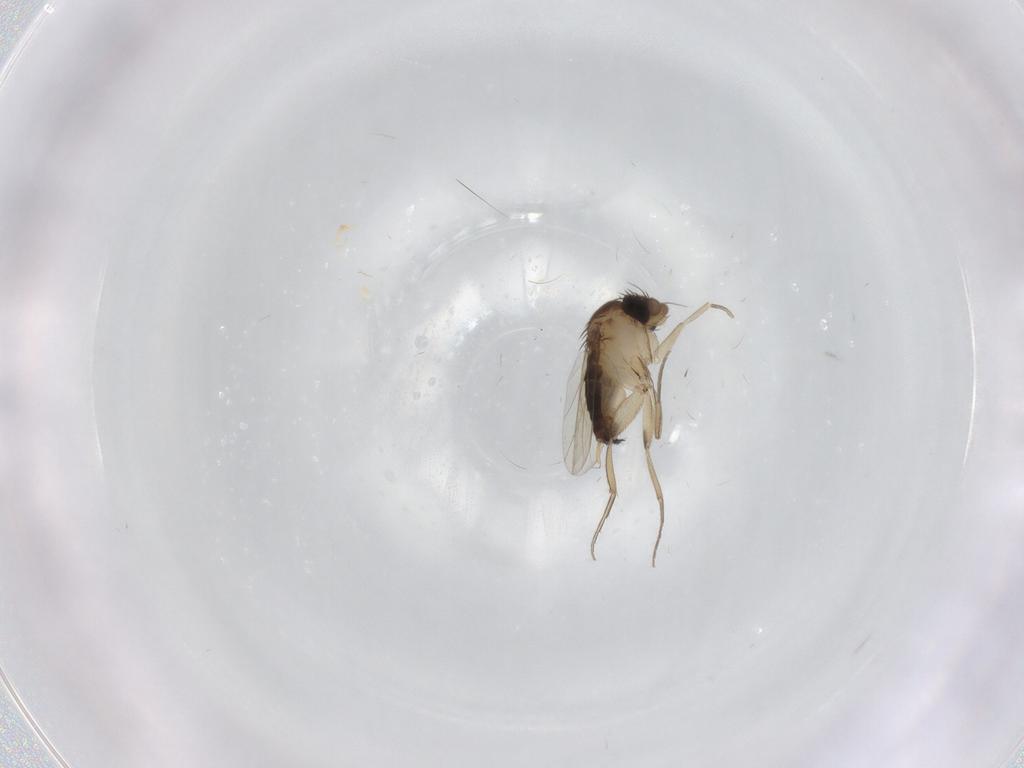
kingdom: Animalia
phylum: Arthropoda
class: Insecta
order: Diptera
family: Phoridae
